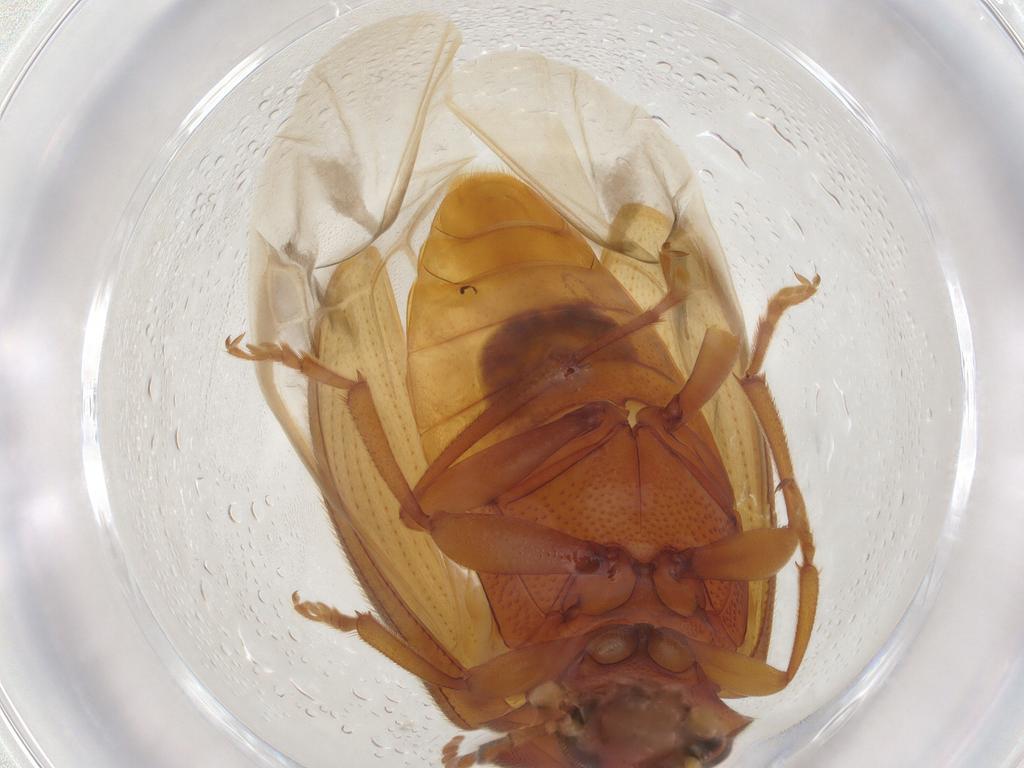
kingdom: Animalia
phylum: Arthropoda
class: Insecta
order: Coleoptera
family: Tenebrionidae
